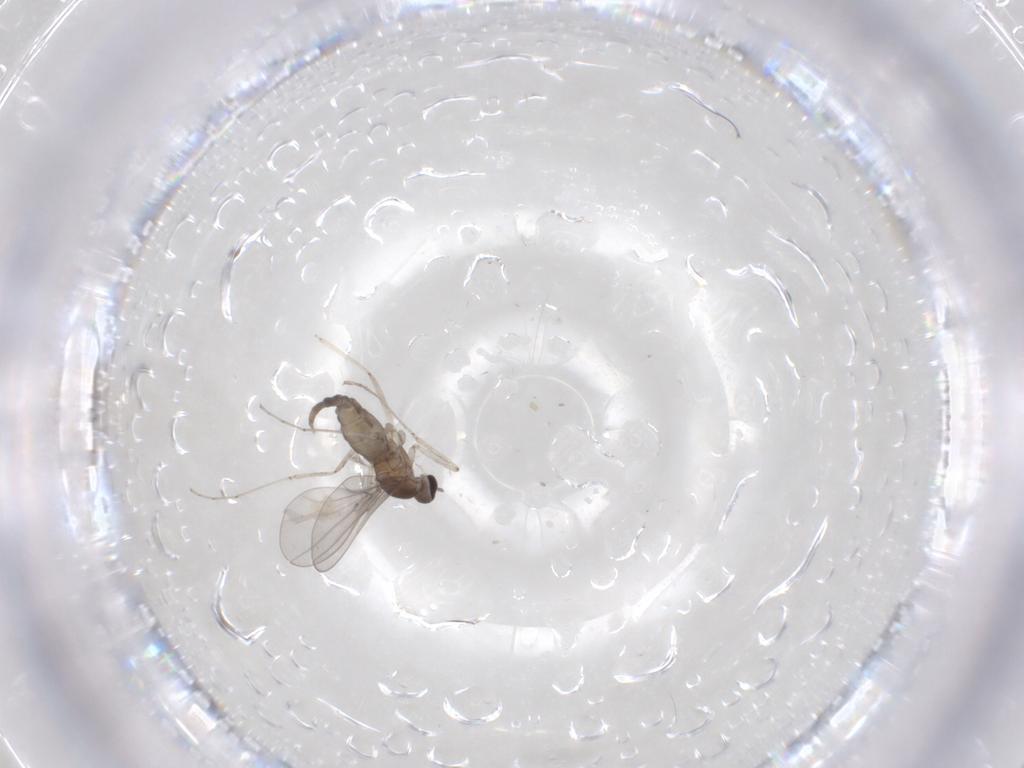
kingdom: Animalia
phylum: Arthropoda
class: Insecta
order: Diptera
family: Cecidomyiidae
